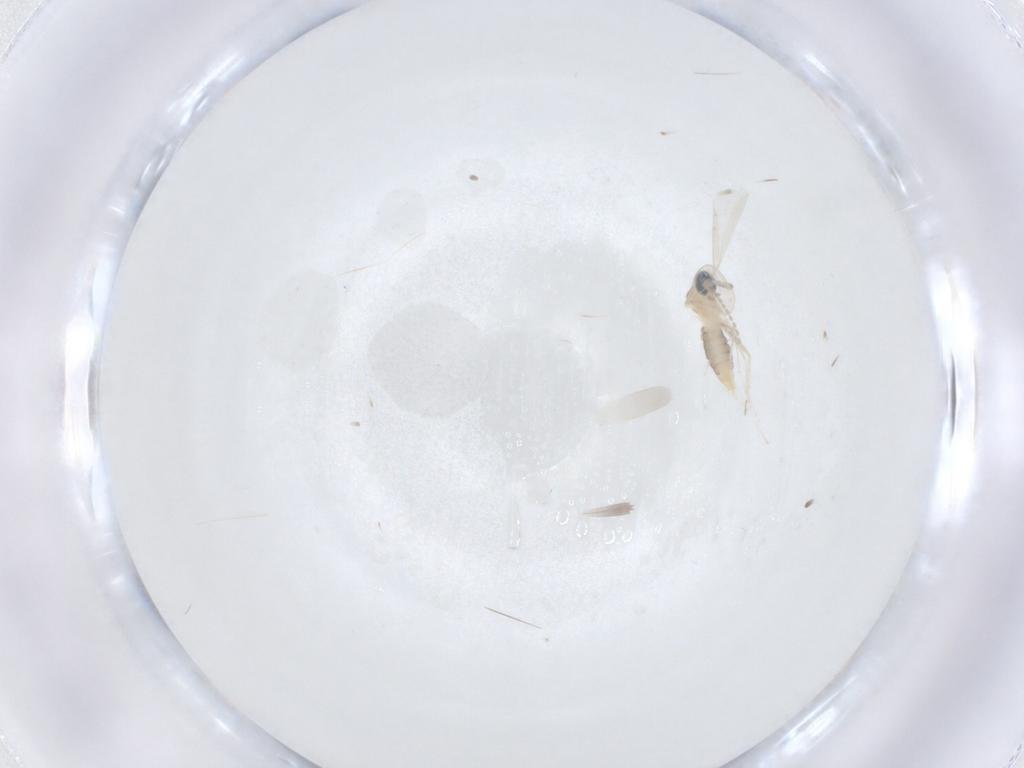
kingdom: Animalia
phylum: Arthropoda
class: Insecta
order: Diptera
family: Cecidomyiidae
